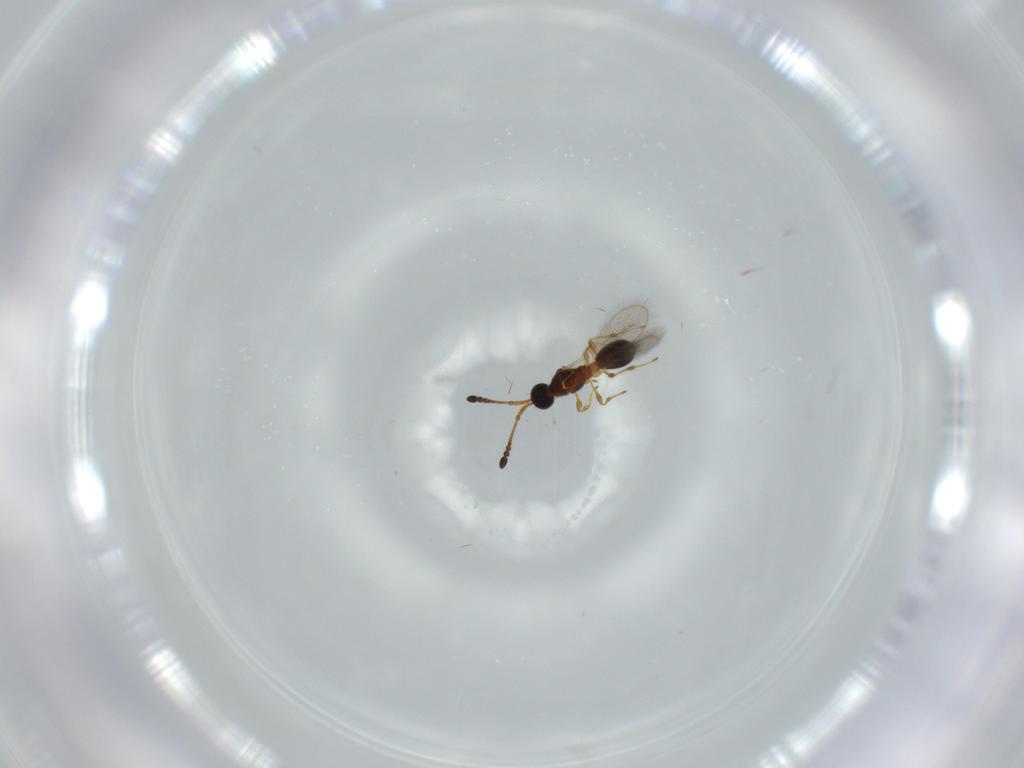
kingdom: Animalia
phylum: Arthropoda
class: Insecta
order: Hymenoptera
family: Diapriidae
